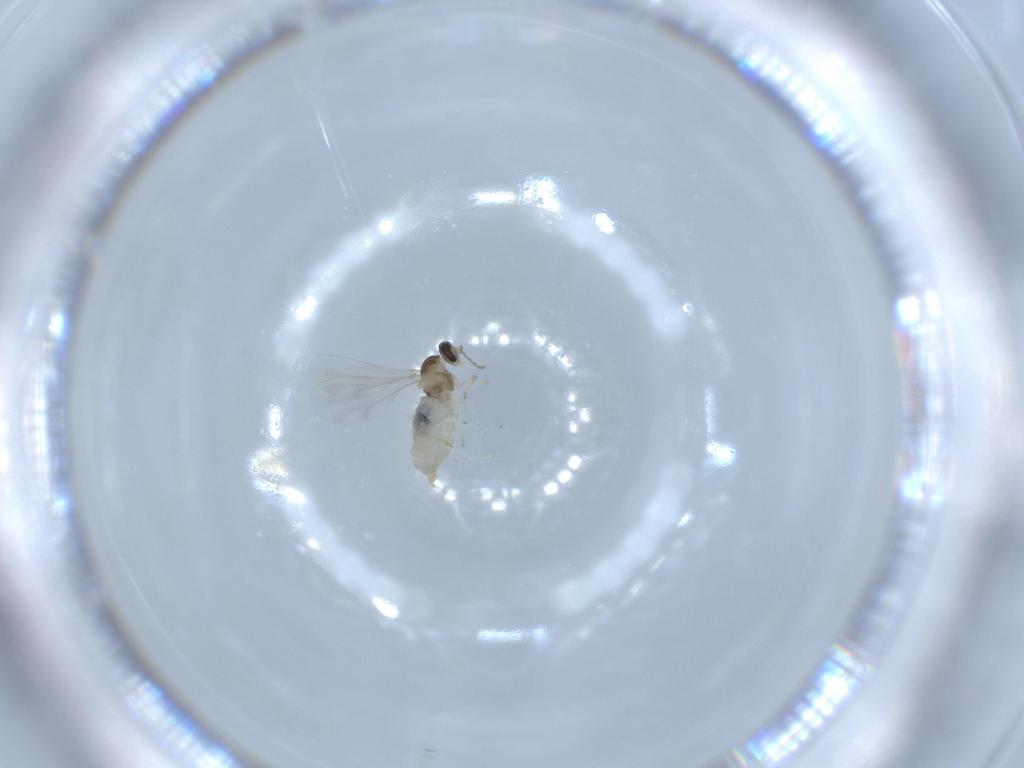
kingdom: Animalia
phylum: Arthropoda
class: Insecta
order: Diptera
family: Cecidomyiidae
